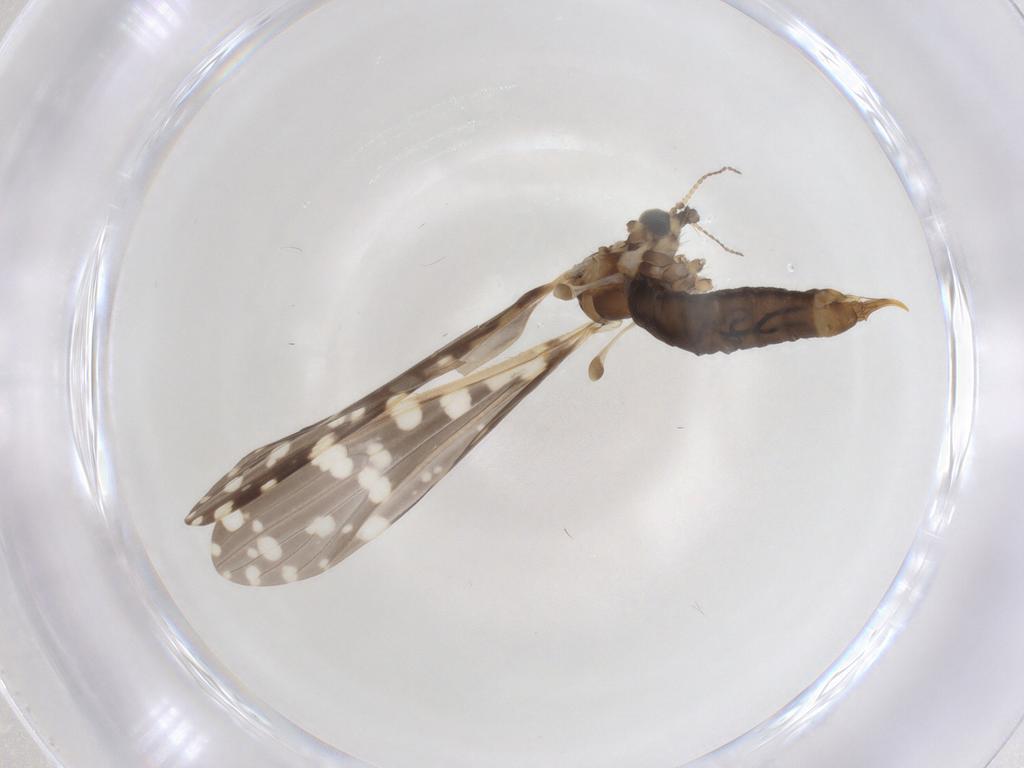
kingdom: Animalia
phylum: Arthropoda
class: Insecta
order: Diptera
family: Limoniidae
